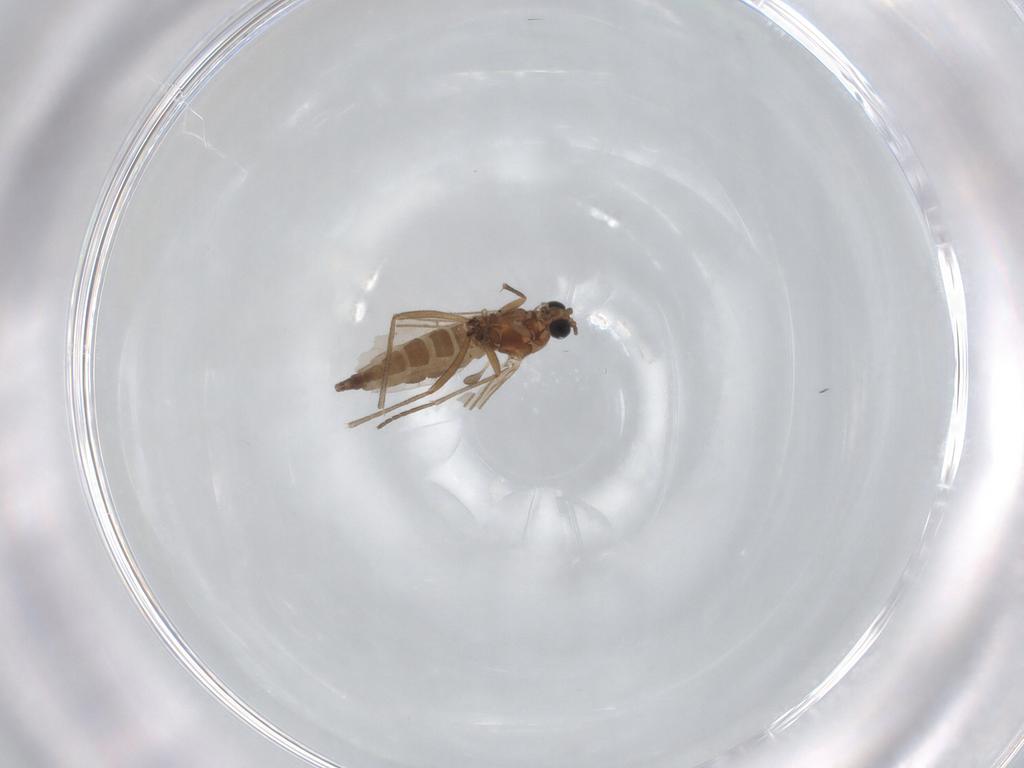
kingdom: Animalia
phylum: Arthropoda
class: Insecta
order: Diptera
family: Sciaridae
